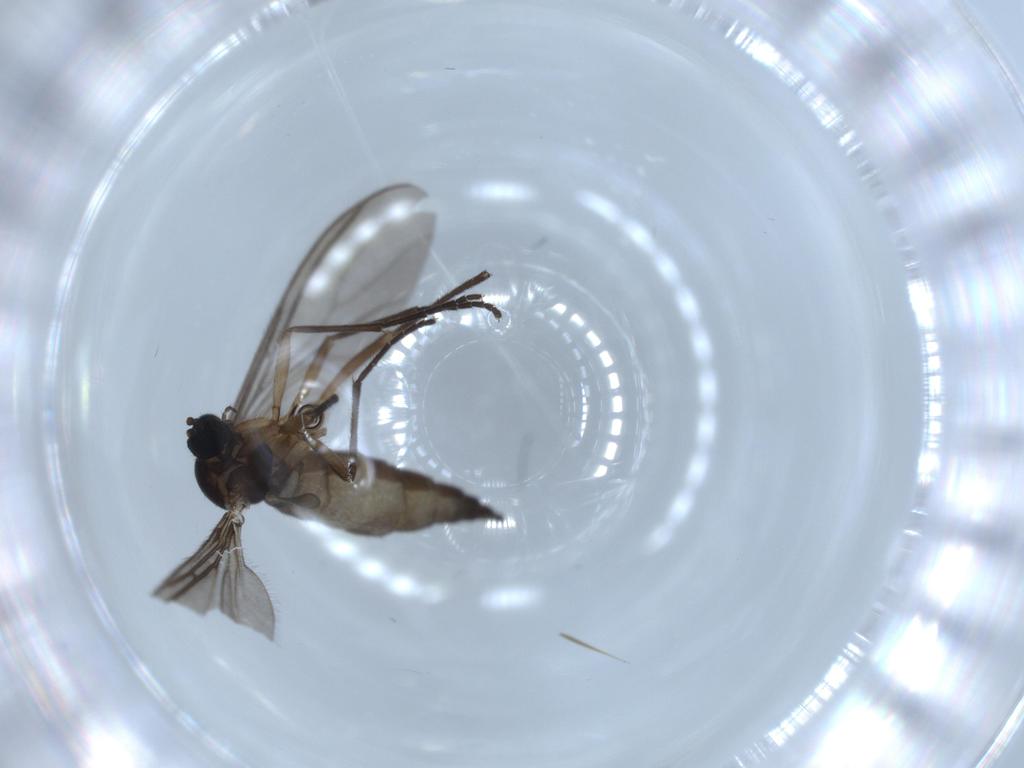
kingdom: Animalia
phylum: Arthropoda
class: Insecta
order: Diptera
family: Sciaridae
